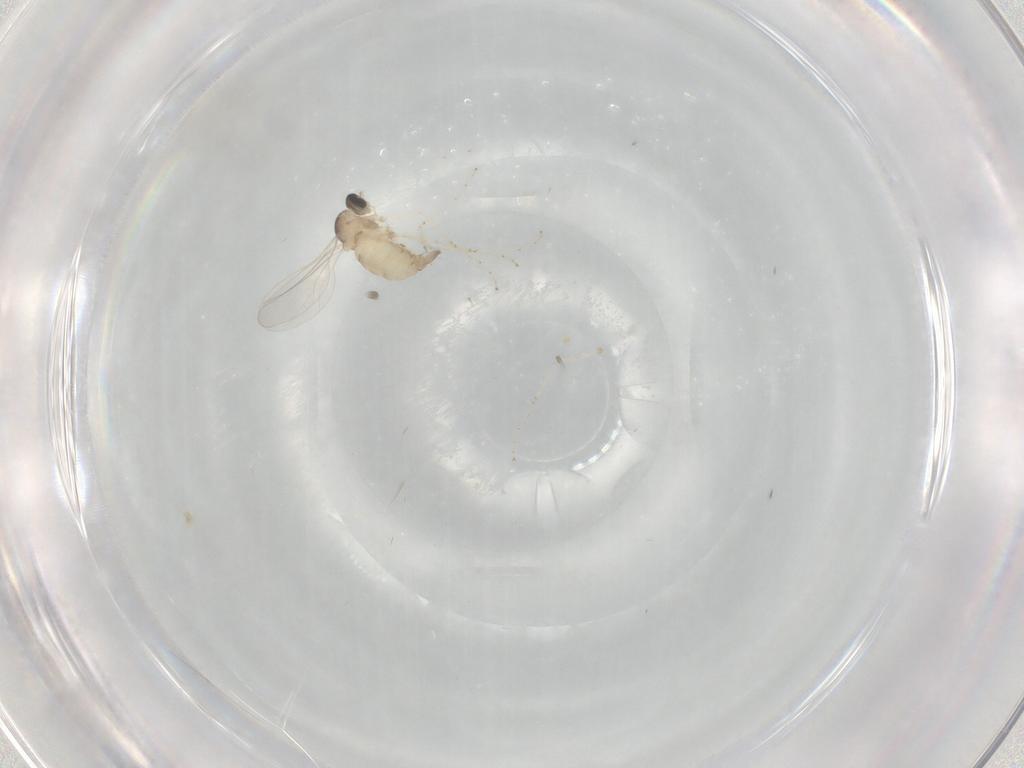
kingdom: Animalia
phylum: Arthropoda
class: Insecta
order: Diptera
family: Cecidomyiidae
